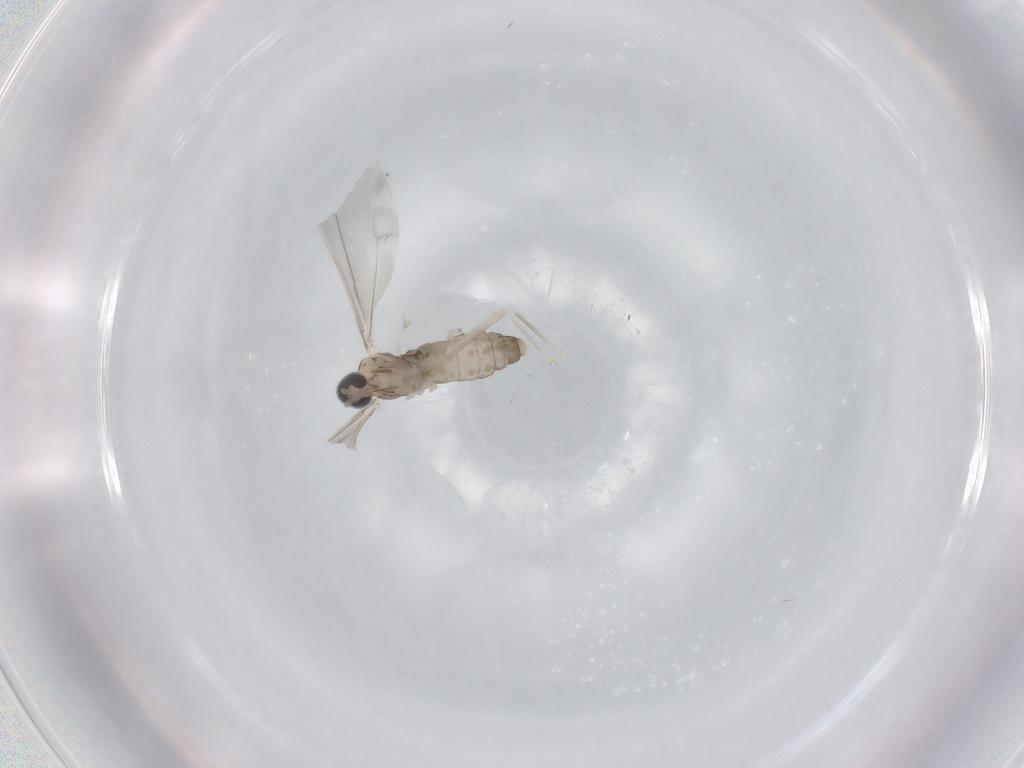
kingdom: Animalia
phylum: Arthropoda
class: Insecta
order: Diptera
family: Cecidomyiidae
